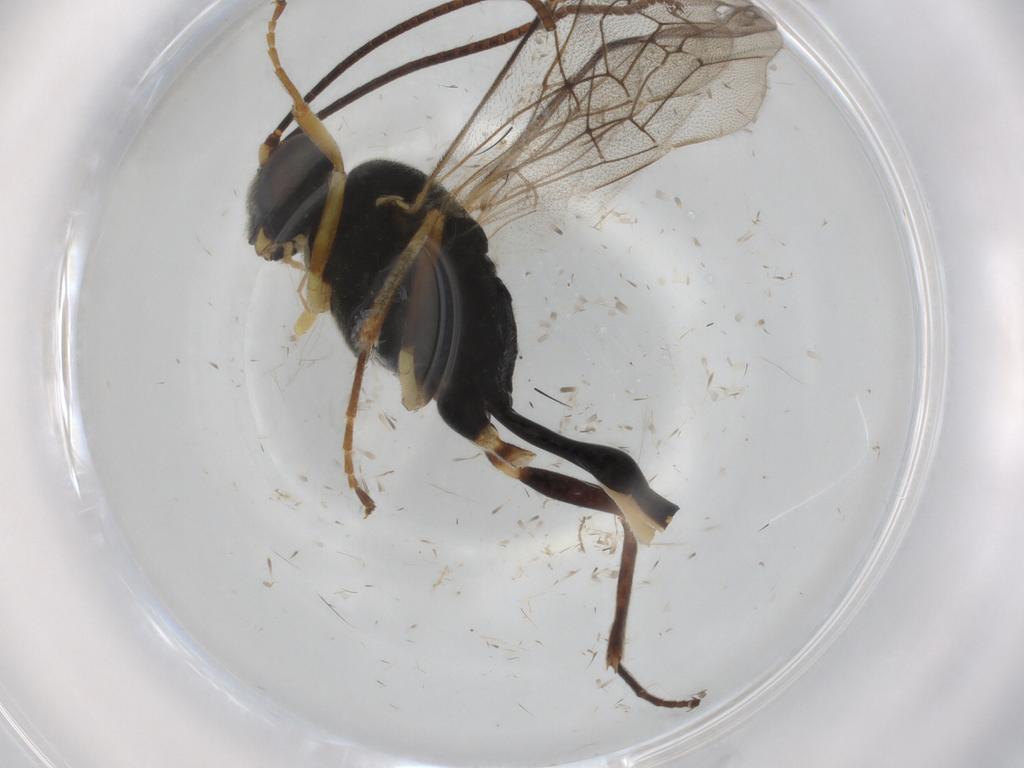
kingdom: Animalia
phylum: Arthropoda
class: Insecta
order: Hymenoptera
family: Ichneumonidae
